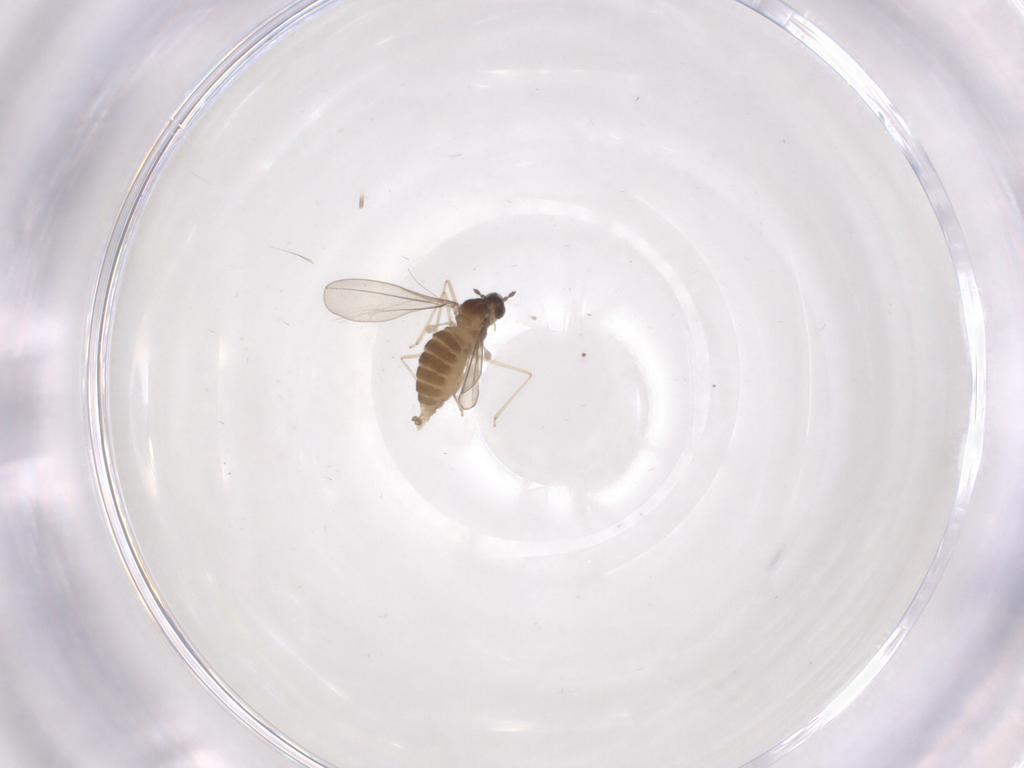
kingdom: Animalia
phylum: Arthropoda
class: Insecta
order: Diptera
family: Cecidomyiidae
